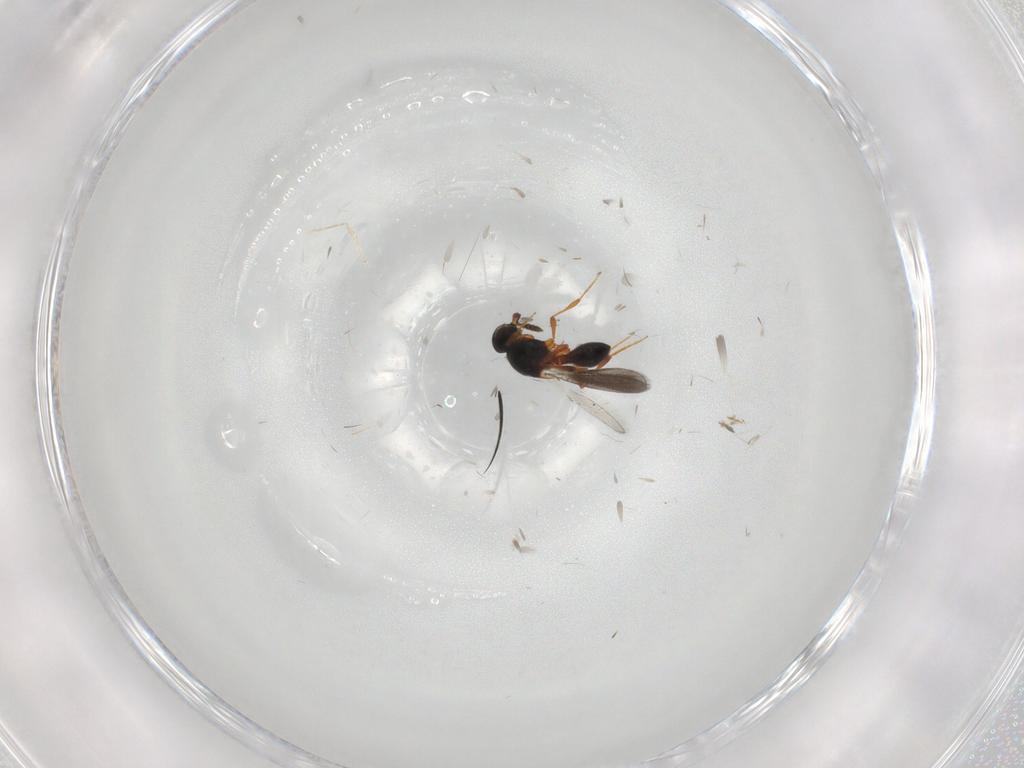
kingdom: Animalia
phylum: Arthropoda
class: Insecta
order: Hymenoptera
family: Platygastridae
